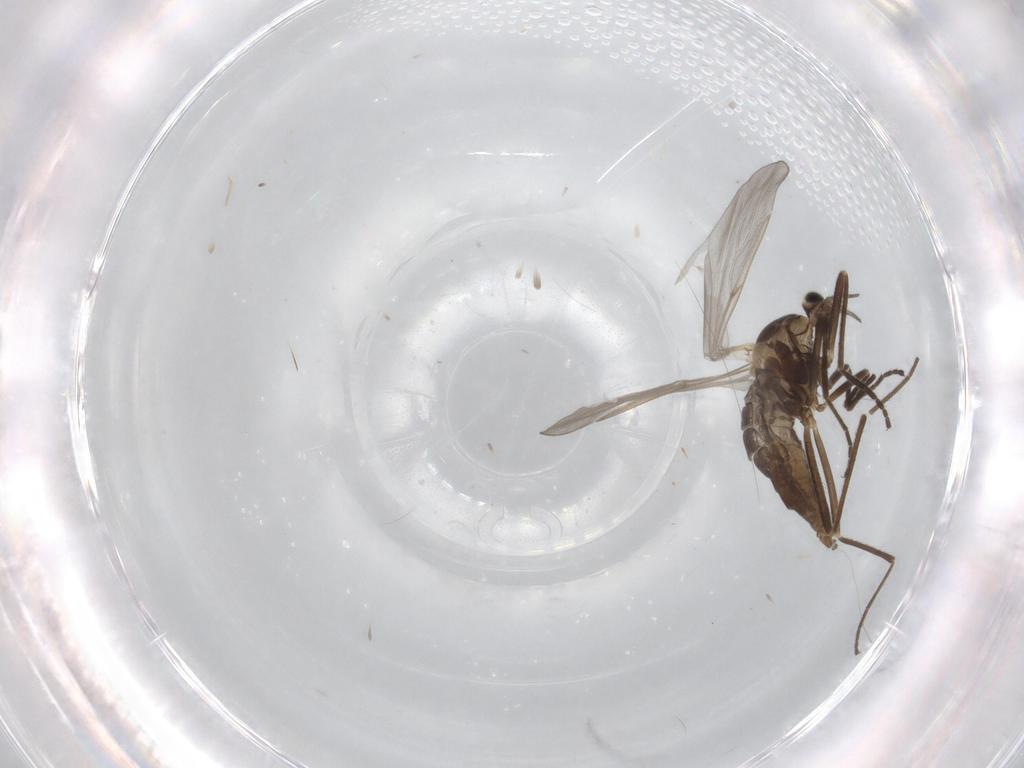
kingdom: Animalia
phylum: Arthropoda
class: Insecta
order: Diptera
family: Cecidomyiidae
